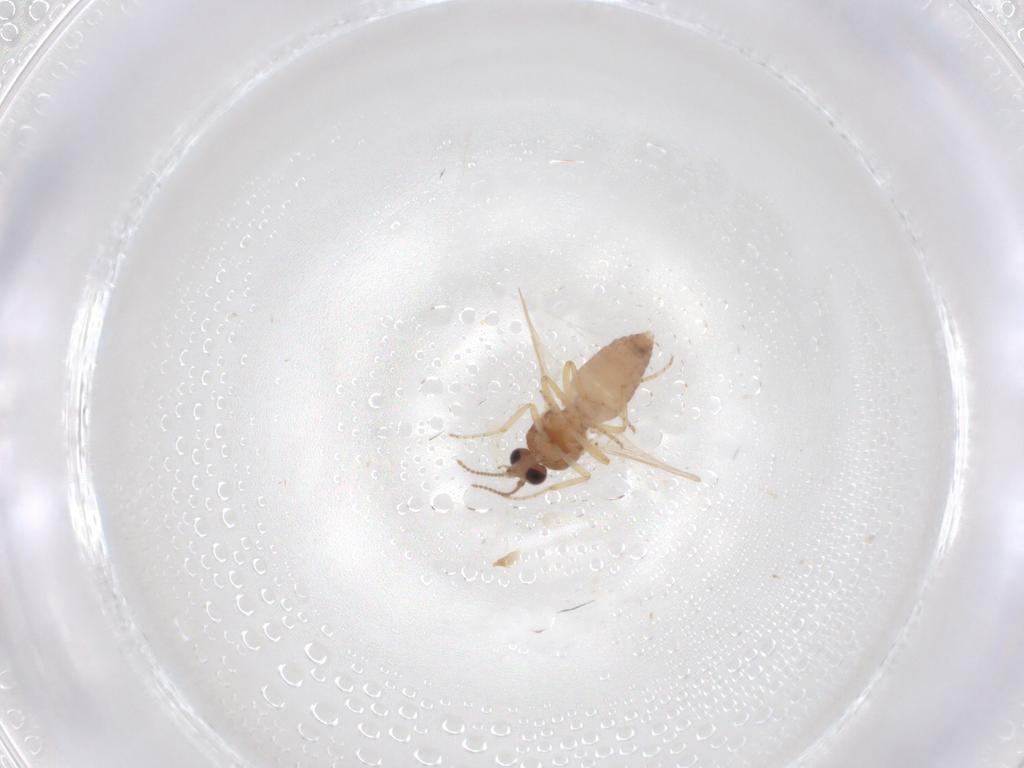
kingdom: Animalia
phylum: Arthropoda
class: Insecta
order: Diptera
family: Ceratopogonidae
